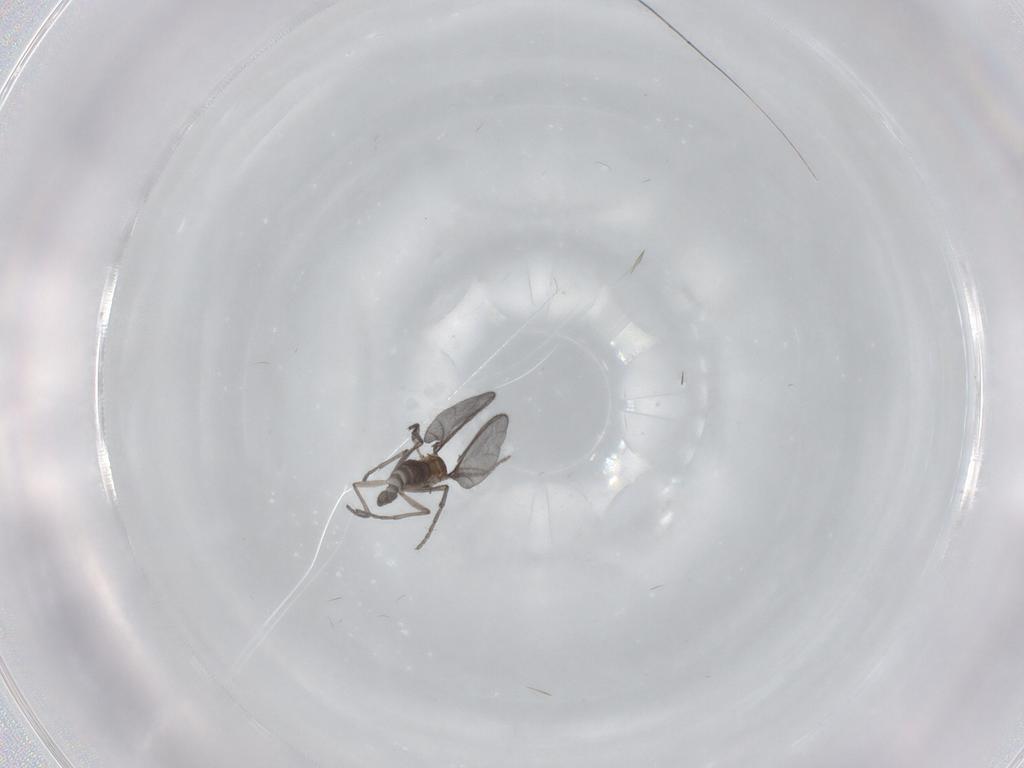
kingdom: Animalia
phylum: Arthropoda
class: Insecta
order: Diptera
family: Sciaridae
